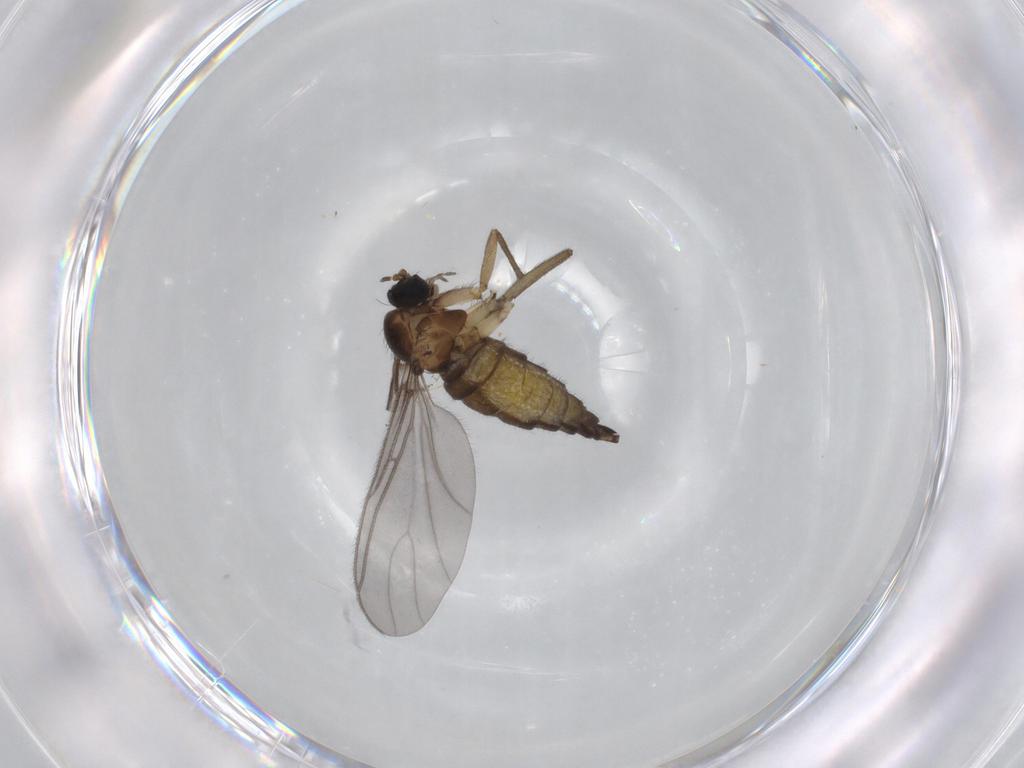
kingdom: Animalia
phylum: Arthropoda
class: Insecta
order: Diptera
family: Sciaridae
